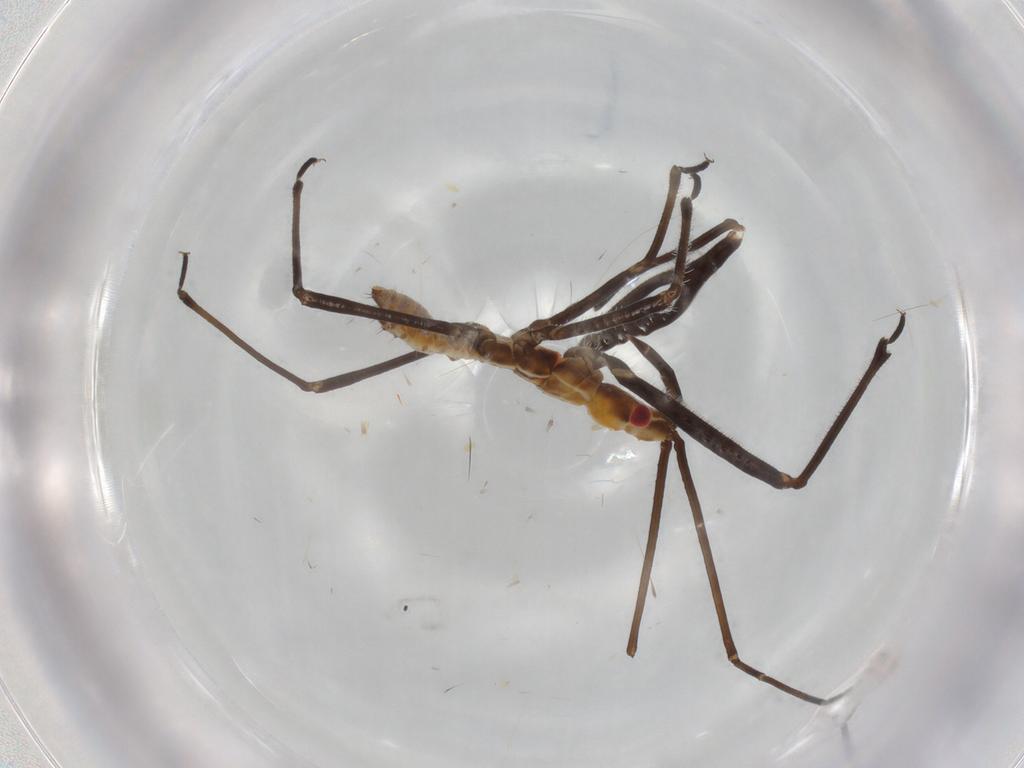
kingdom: Animalia
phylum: Arthropoda
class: Insecta
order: Hemiptera
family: Reduviidae
